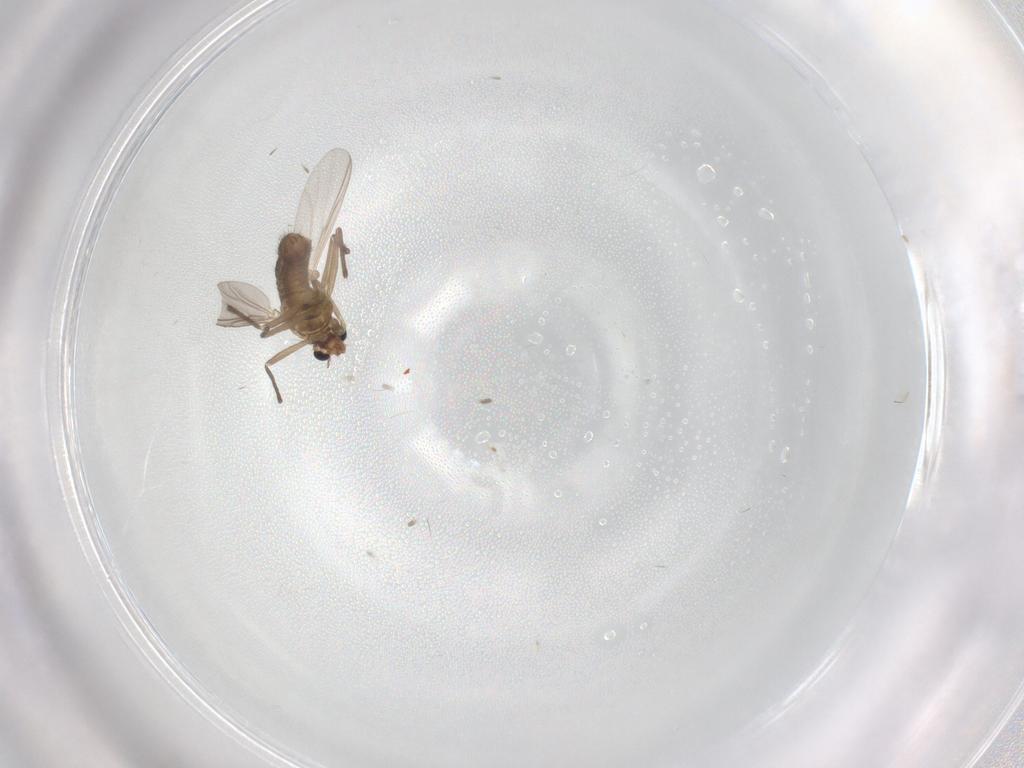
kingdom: Animalia
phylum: Arthropoda
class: Insecta
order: Diptera
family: Chironomidae
